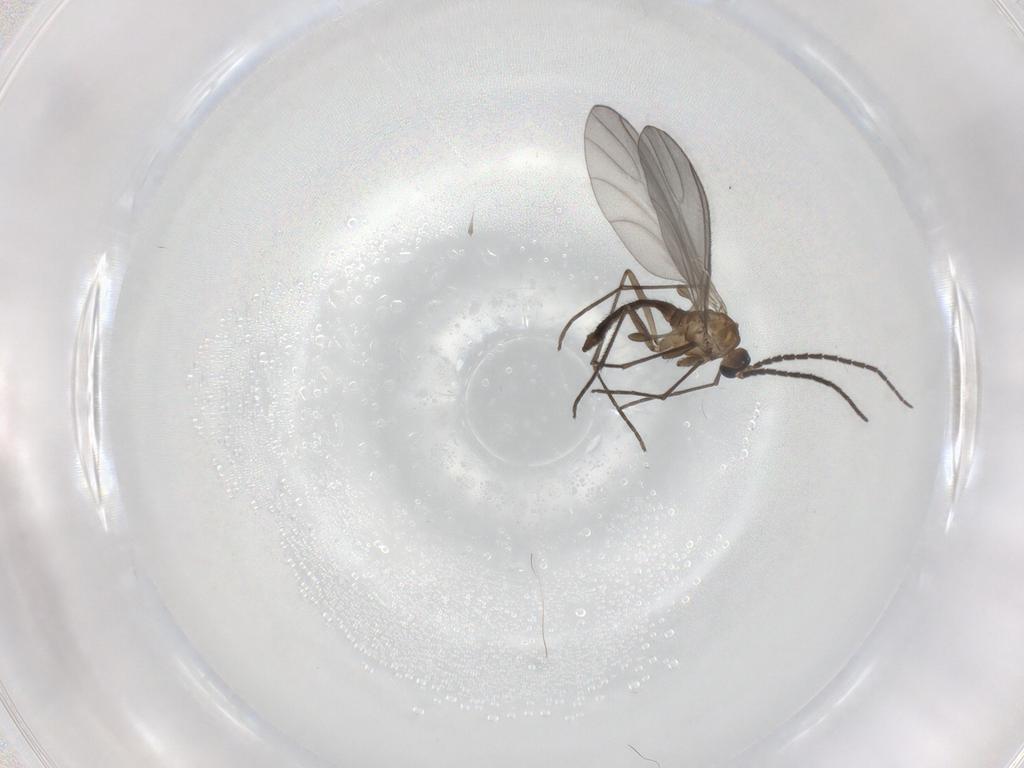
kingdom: Animalia
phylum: Arthropoda
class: Insecta
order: Diptera
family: Sciaridae
